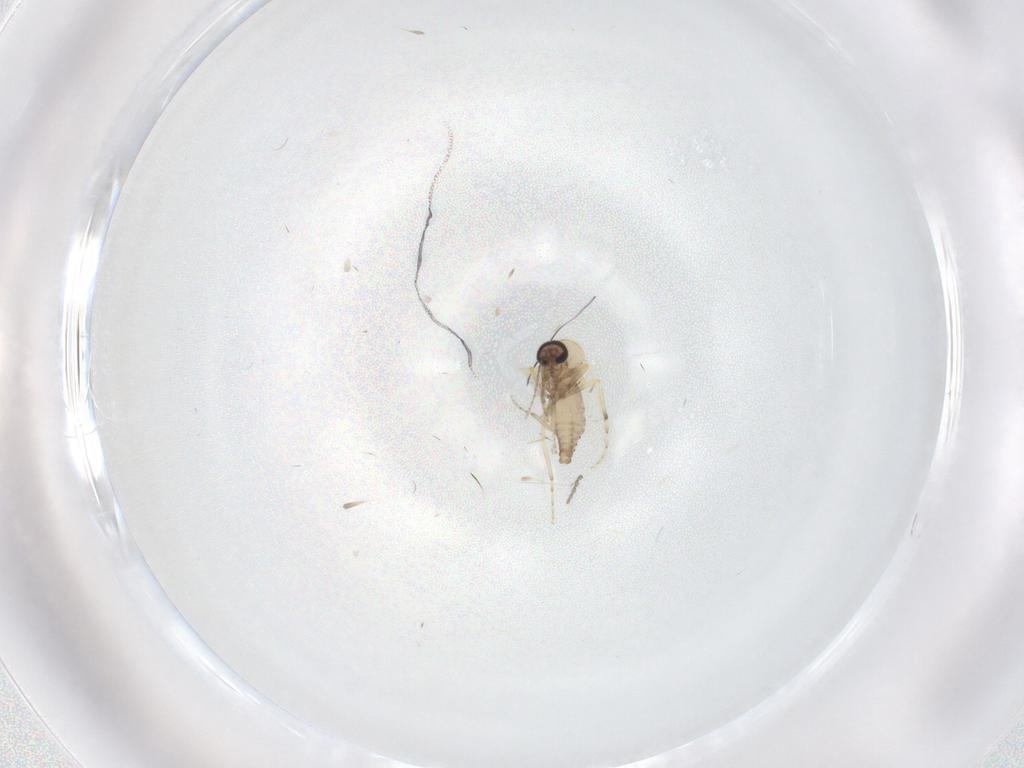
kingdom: Animalia
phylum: Arthropoda
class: Insecta
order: Diptera
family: Ceratopogonidae
